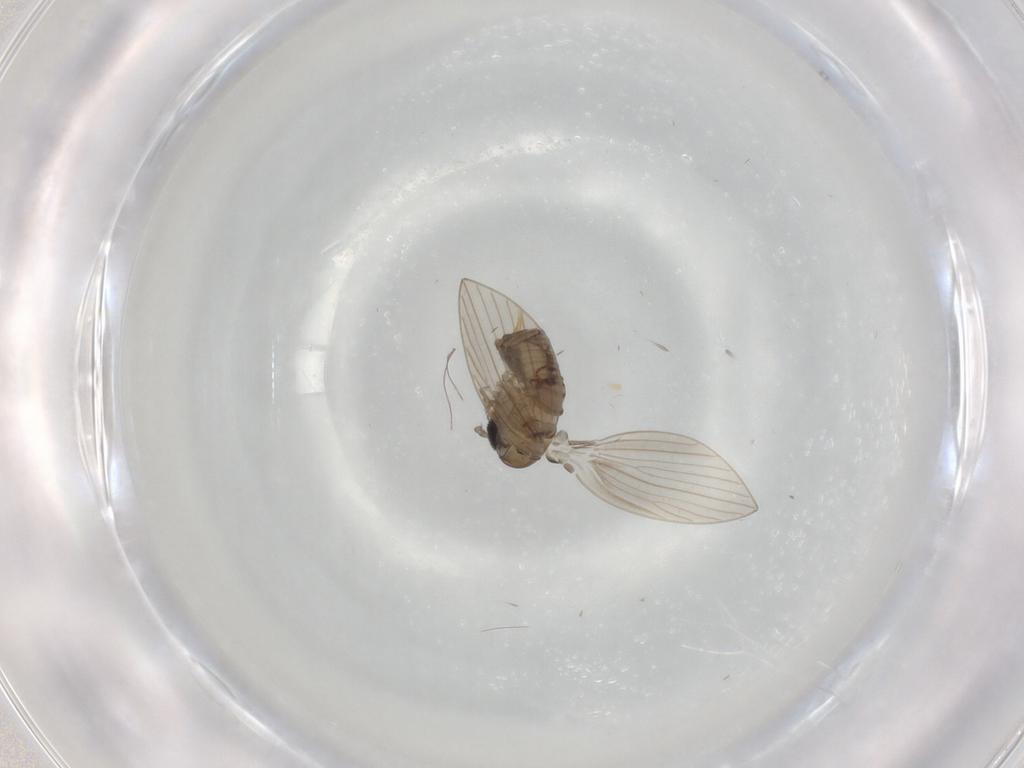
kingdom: Animalia
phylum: Arthropoda
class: Insecta
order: Diptera
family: Psychodidae
